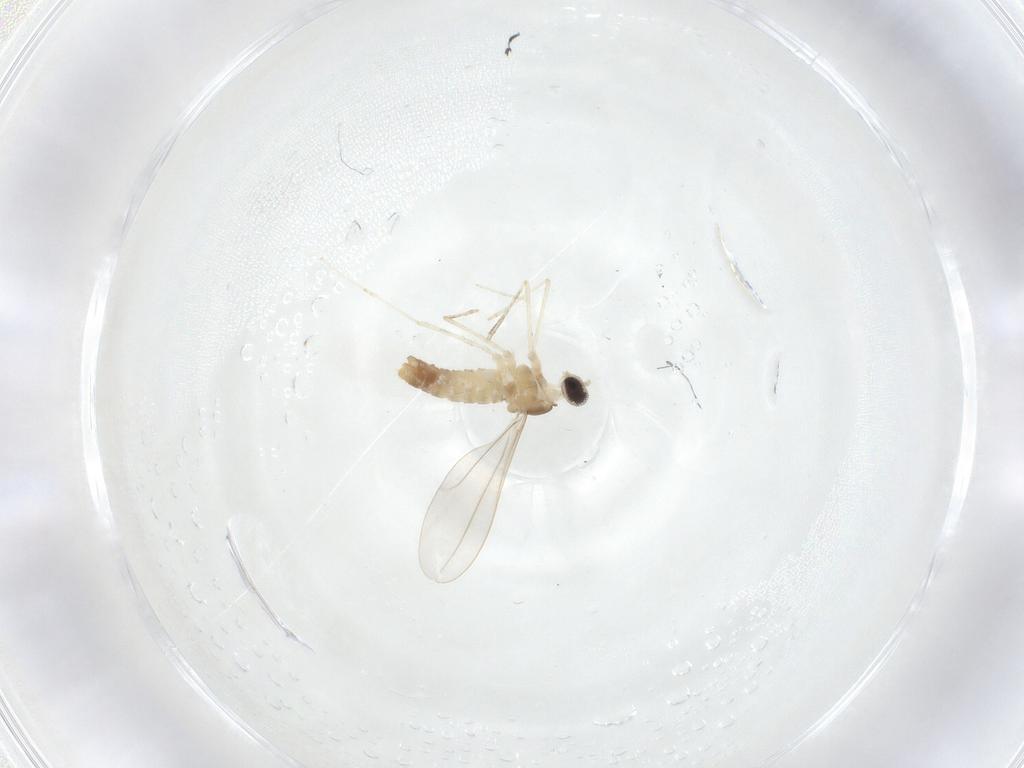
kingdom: Animalia
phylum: Arthropoda
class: Insecta
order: Diptera
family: Cecidomyiidae
